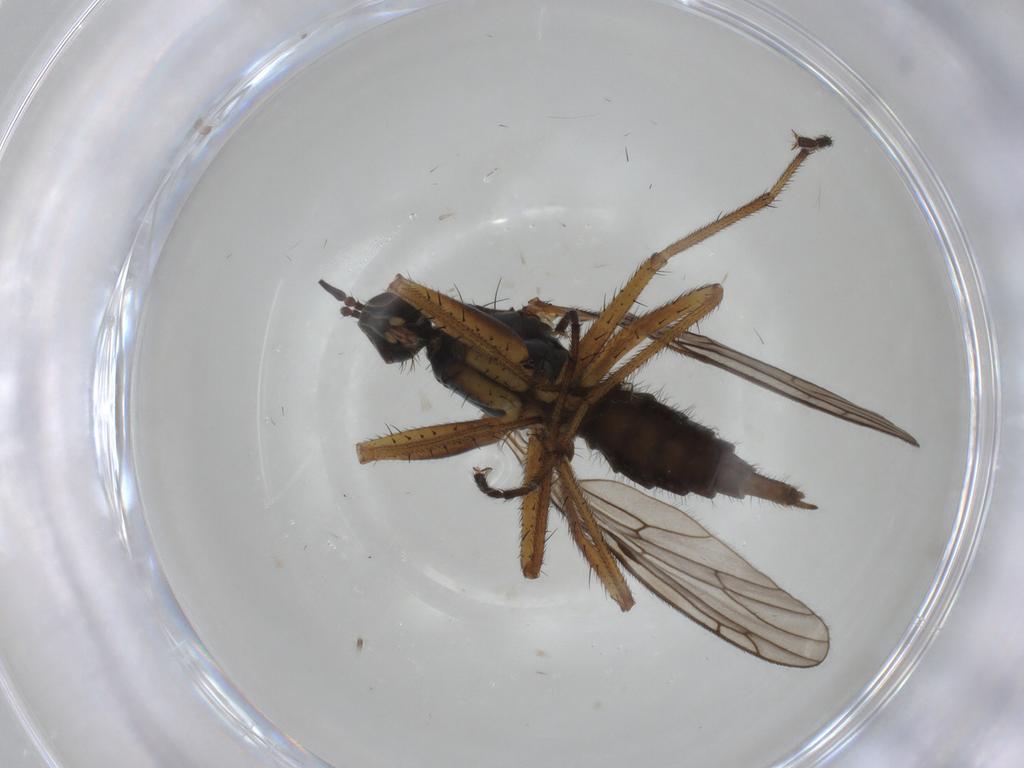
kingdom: Animalia
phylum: Arthropoda
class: Insecta
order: Diptera
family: Empididae
